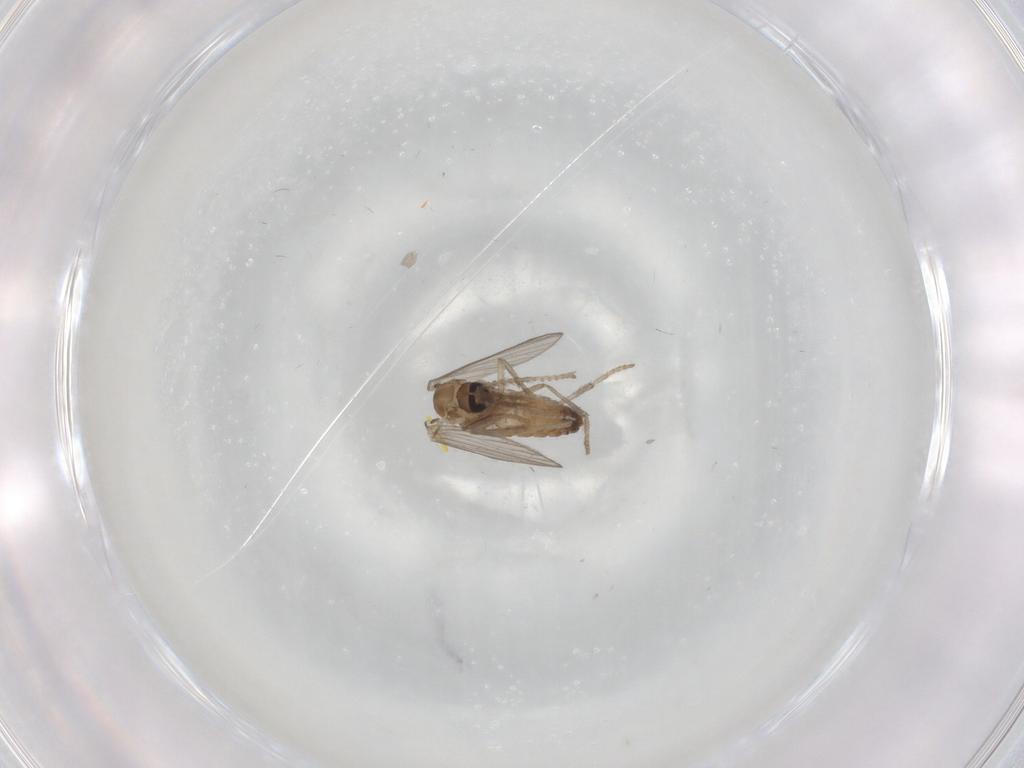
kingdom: Animalia
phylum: Arthropoda
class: Insecta
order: Diptera
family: Psychodidae
